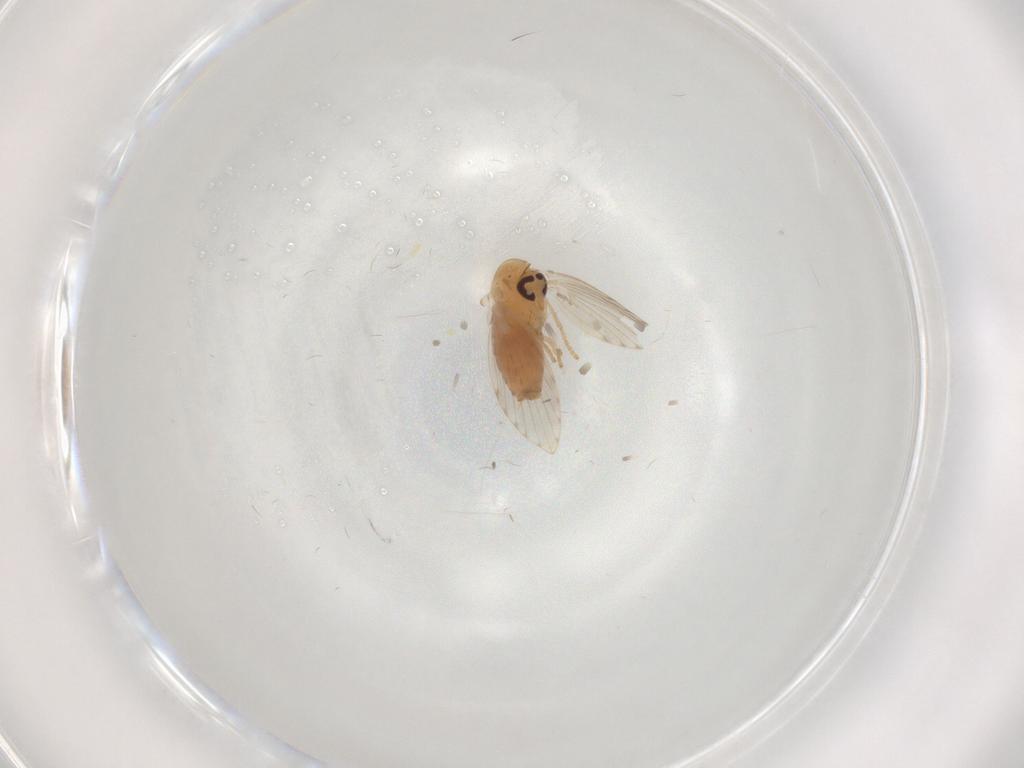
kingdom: Animalia
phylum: Arthropoda
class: Insecta
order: Diptera
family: Psychodidae
